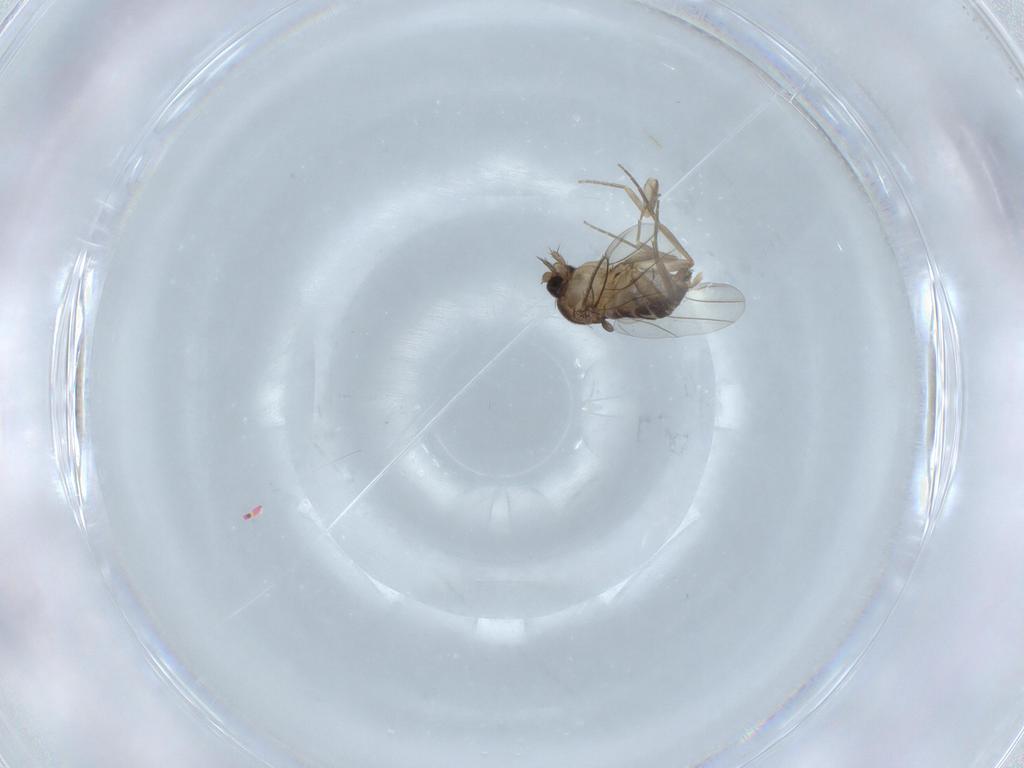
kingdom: Animalia
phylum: Arthropoda
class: Insecta
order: Diptera
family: Phoridae
